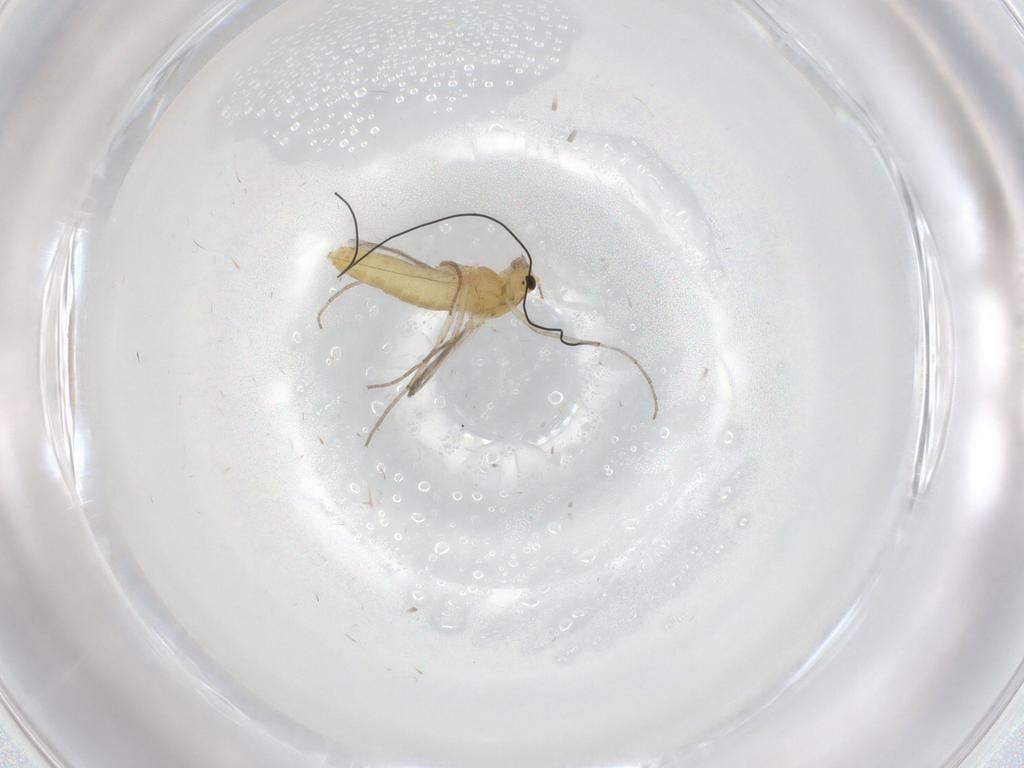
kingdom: Animalia
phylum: Arthropoda
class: Insecta
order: Diptera
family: Chironomidae
